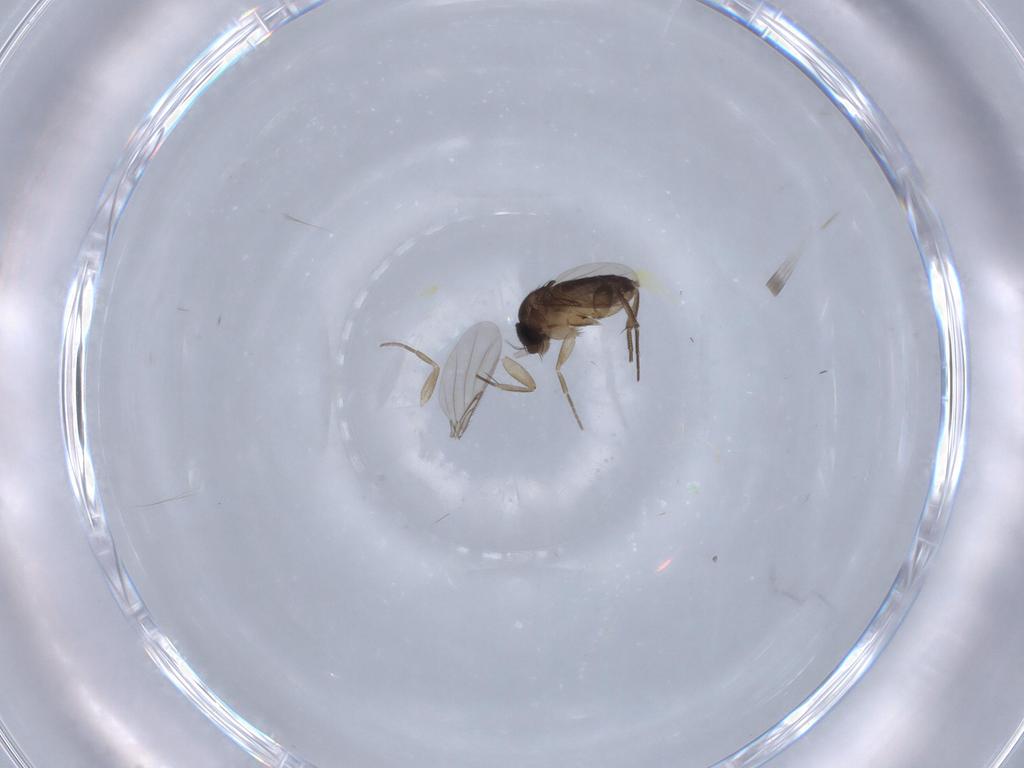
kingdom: Animalia
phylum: Arthropoda
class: Insecta
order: Diptera
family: Phoridae
